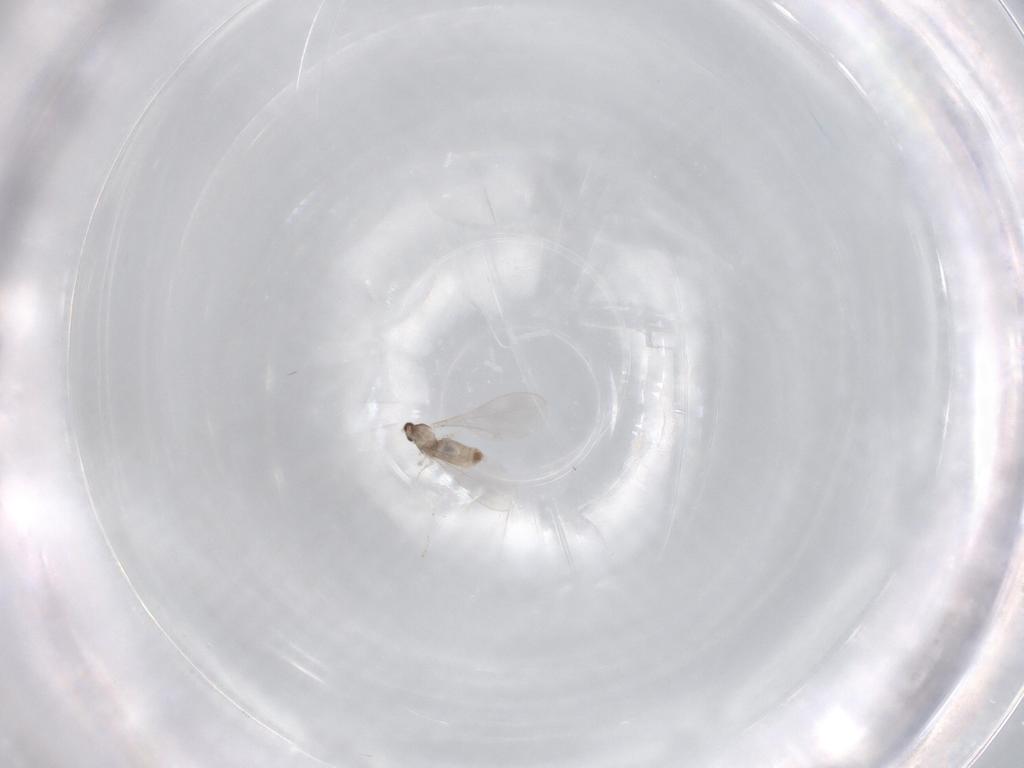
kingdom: Animalia
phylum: Arthropoda
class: Insecta
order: Diptera
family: Cecidomyiidae
